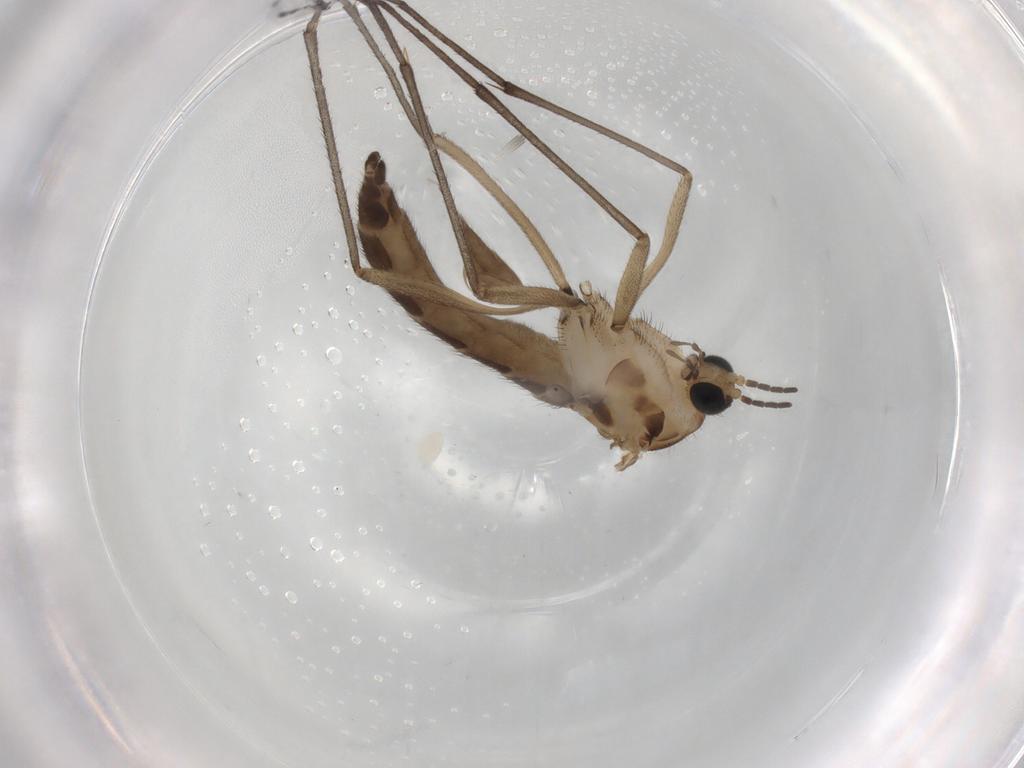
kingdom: Animalia
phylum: Arthropoda
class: Insecta
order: Diptera
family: Sciaridae
